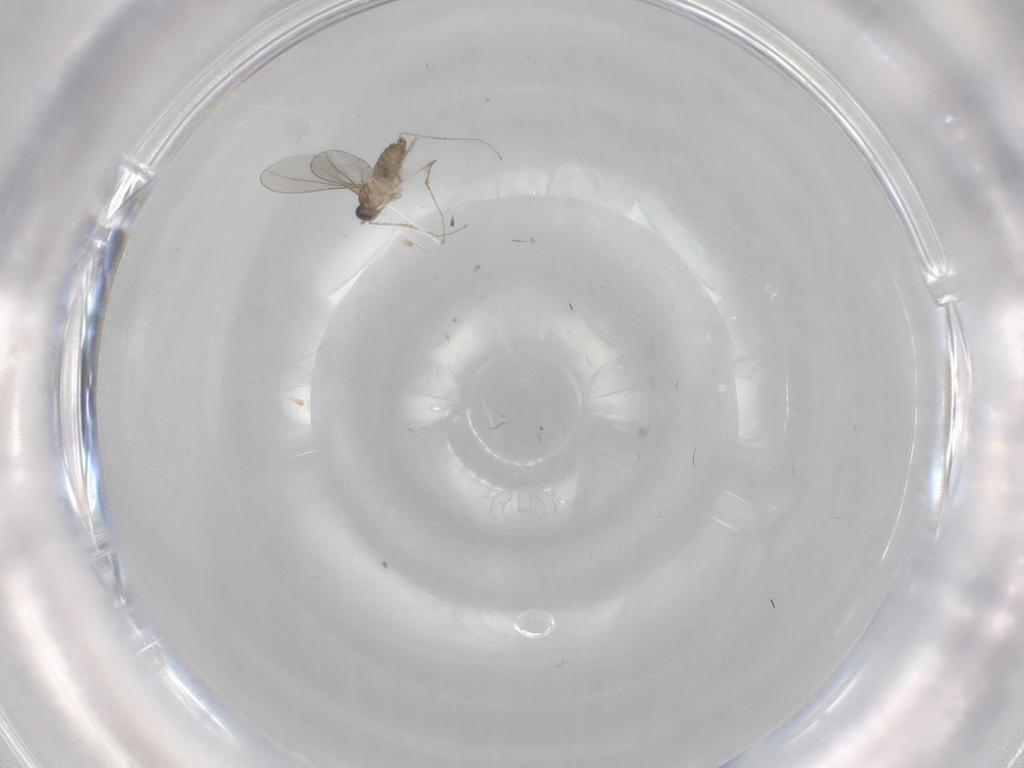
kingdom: Animalia
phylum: Arthropoda
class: Insecta
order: Diptera
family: Cecidomyiidae
